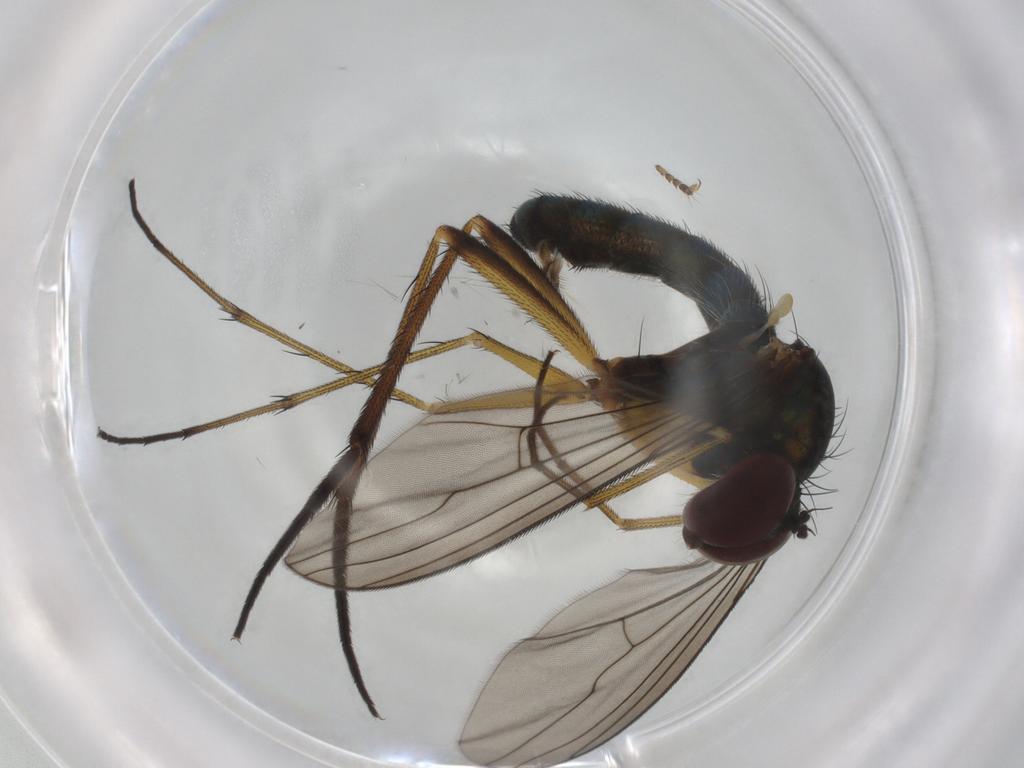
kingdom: Animalia
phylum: Arthropoda
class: Insecta
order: Diptera
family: Dolichopodidae
